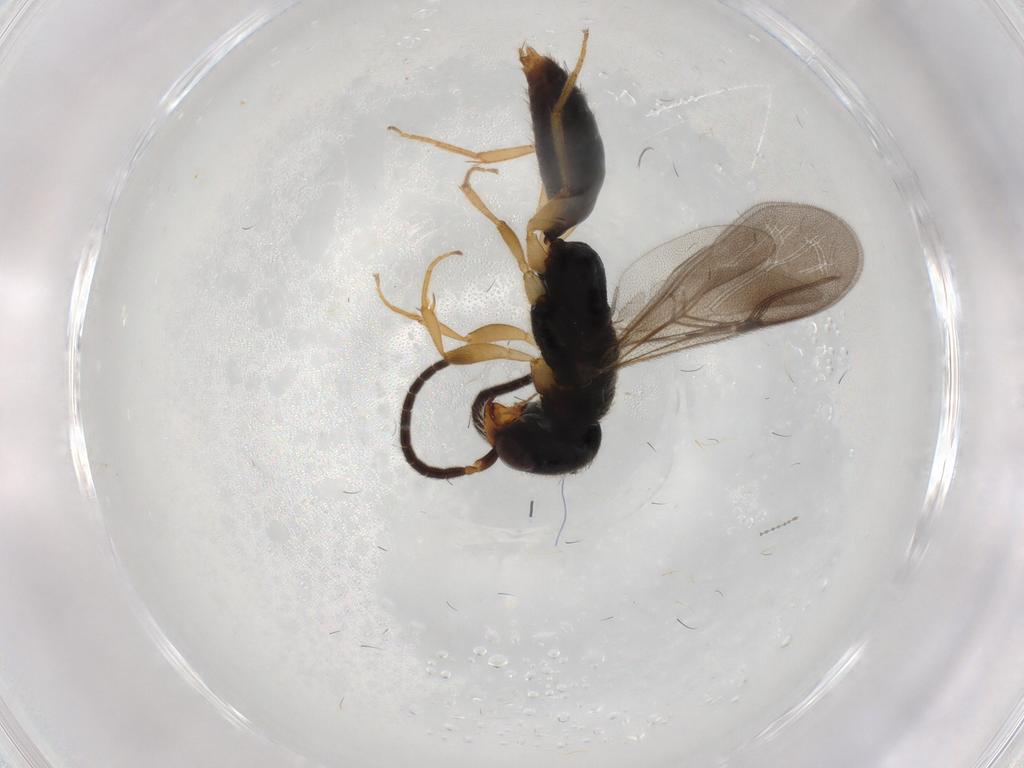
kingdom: Animalia
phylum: Arthropoda
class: Insecta
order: Hymenoptera
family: Bethylidae
